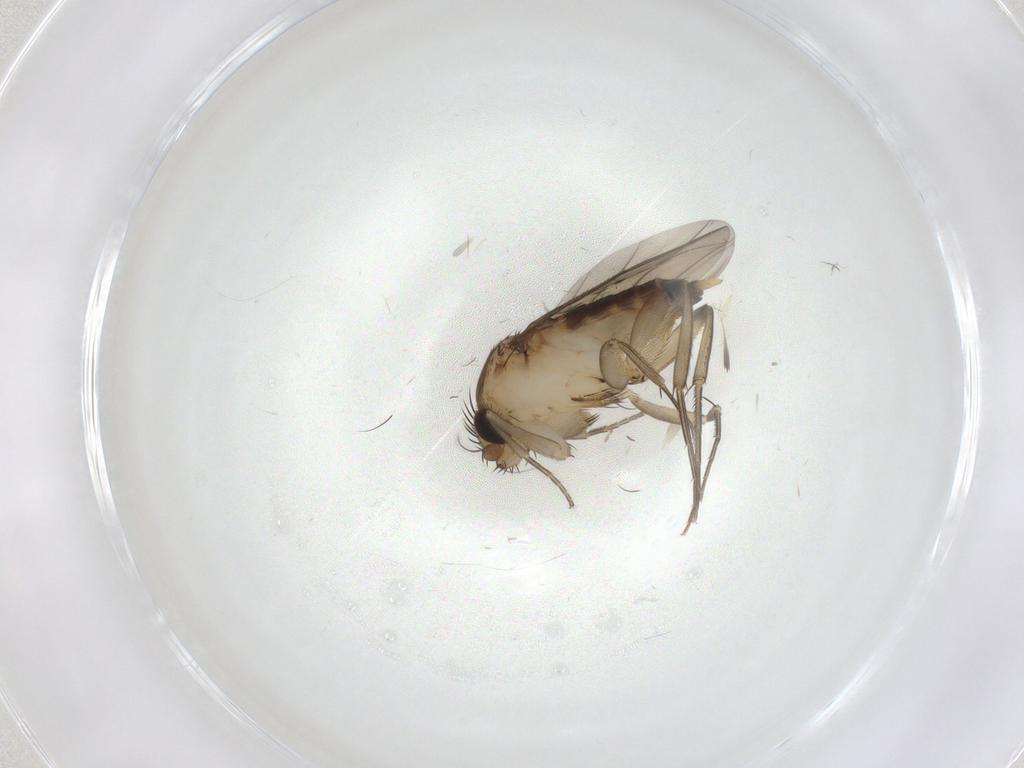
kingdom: Animalia
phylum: Arthropoda
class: Insecta
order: Diptera
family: Phoridae
